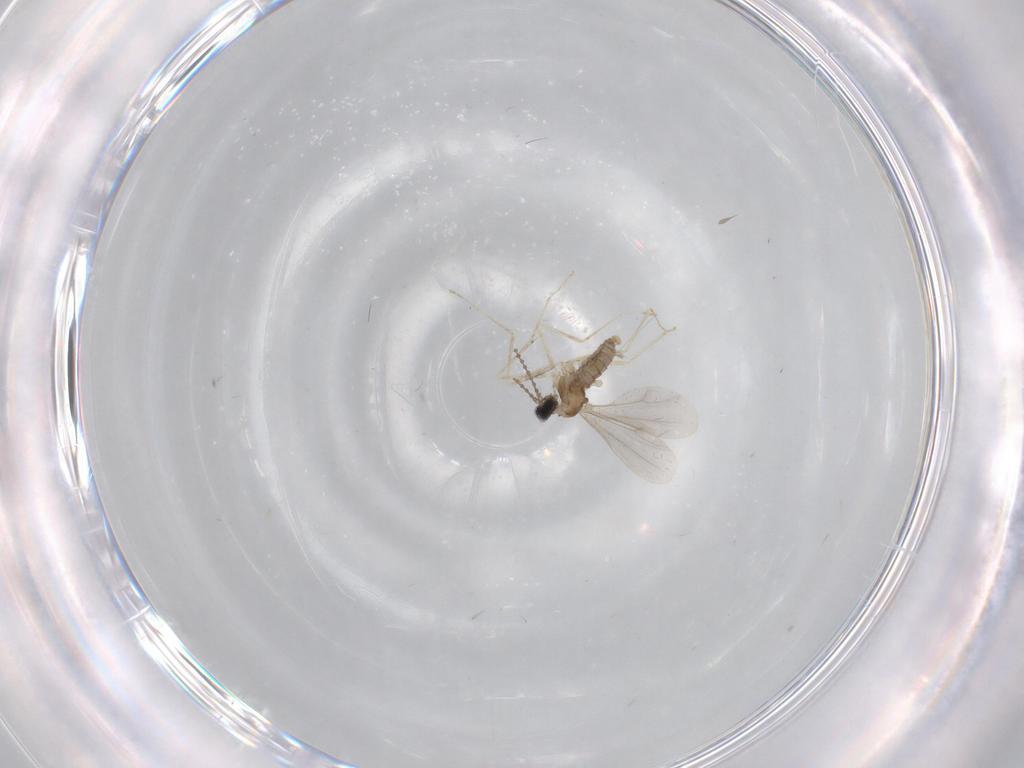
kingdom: Animalia
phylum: Arthropoda
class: Insecta
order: Diptera
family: Cecidomyiidae
